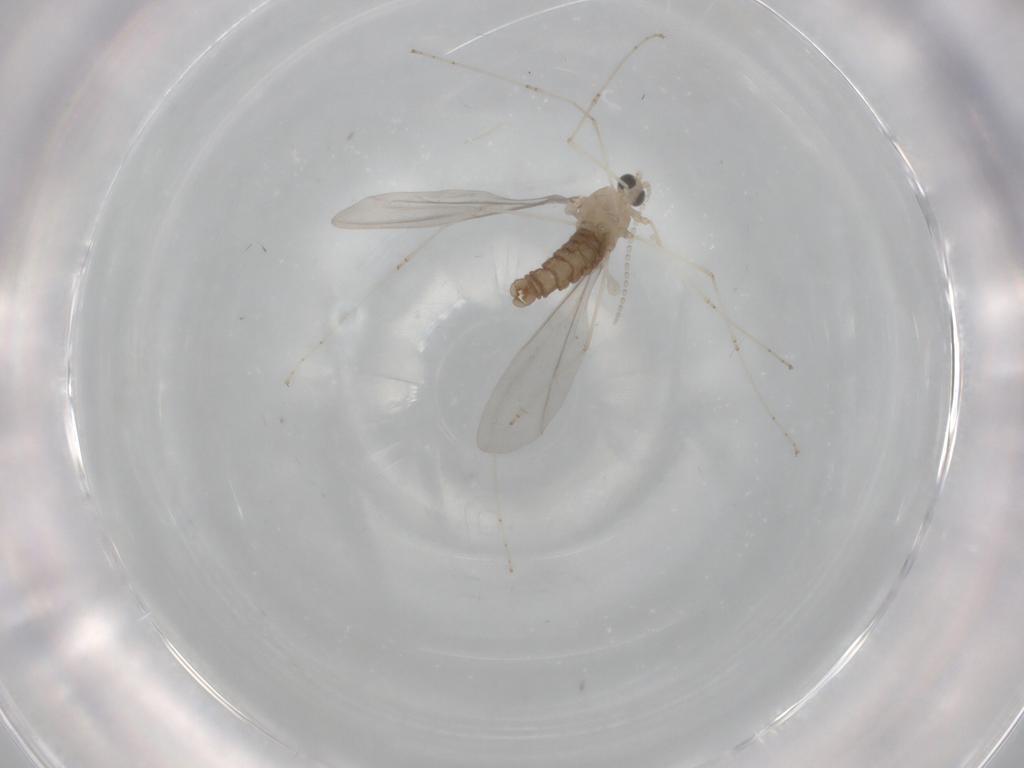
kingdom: Animalia
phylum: Arthropoda
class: Insecta
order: Diptera
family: Cecidomyiidae
